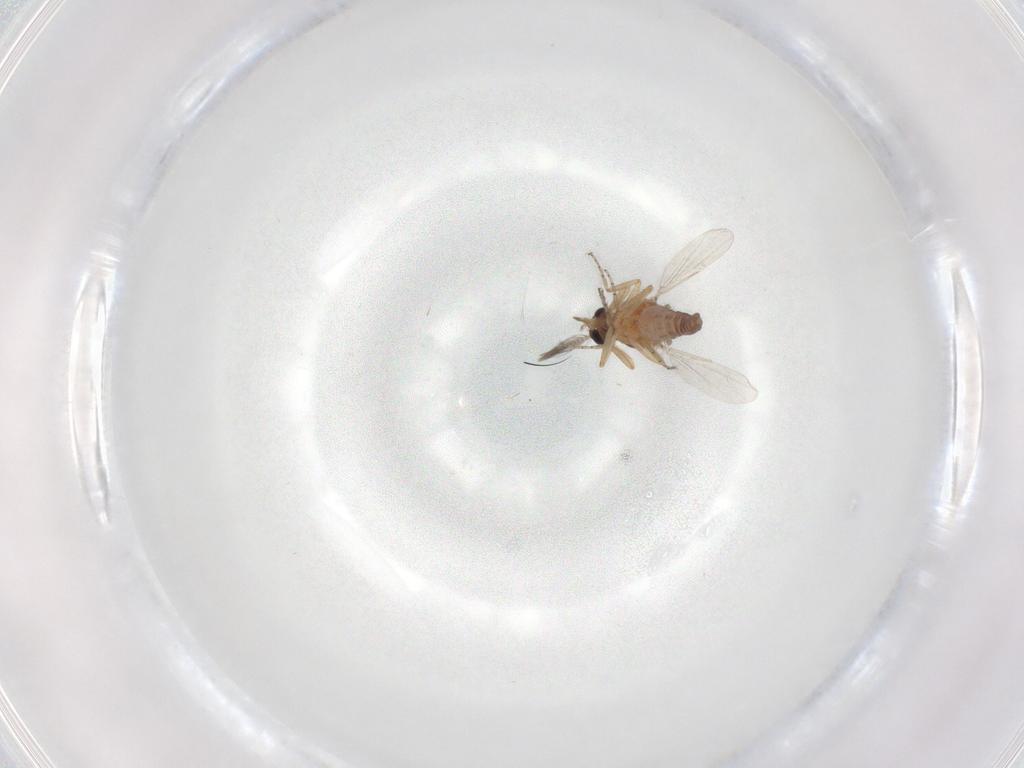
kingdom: Animalia
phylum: Arthropoda
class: Insecta
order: Diptera
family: Ceratopogonidae
